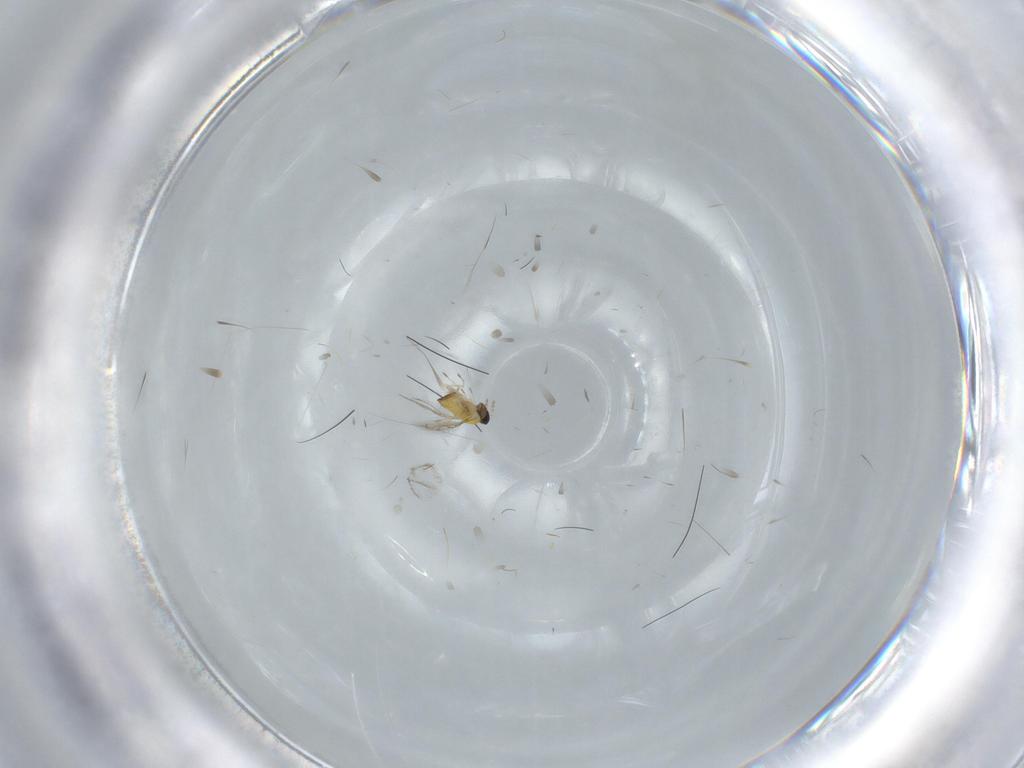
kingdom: Animalia
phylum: Arthropoda
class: Insecta
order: Hymenoptera
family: Trichogrammatidae
